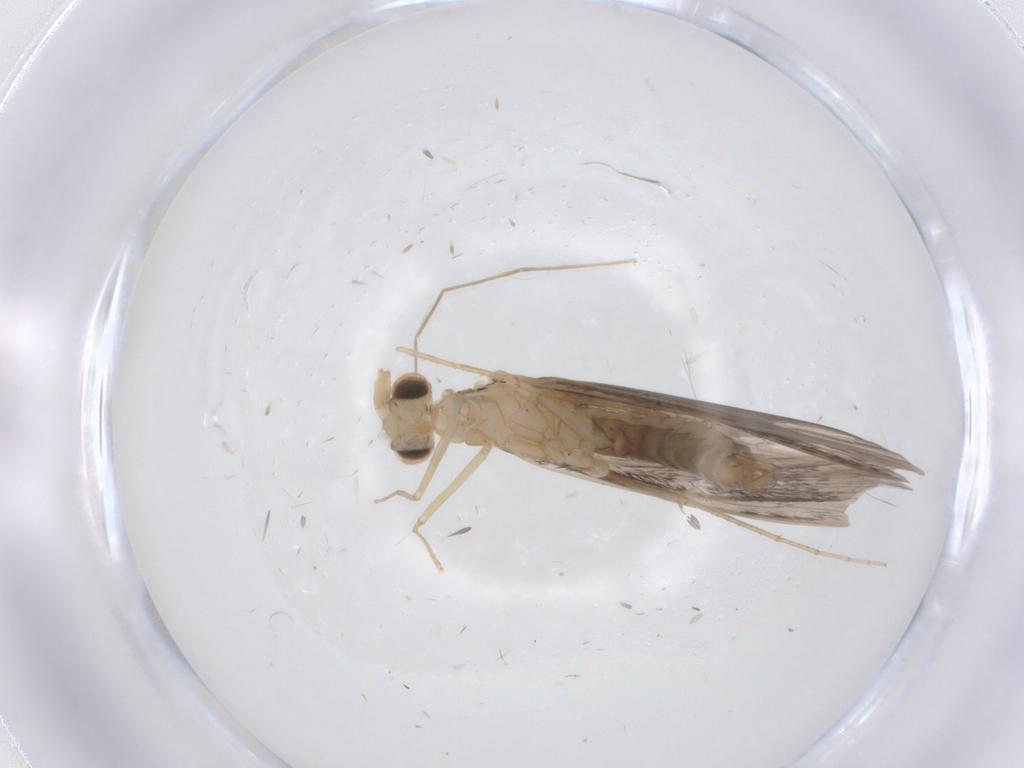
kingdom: Animalia
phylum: Arthropoda
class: Insecta
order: Trichoptera
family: Leptoceridae
